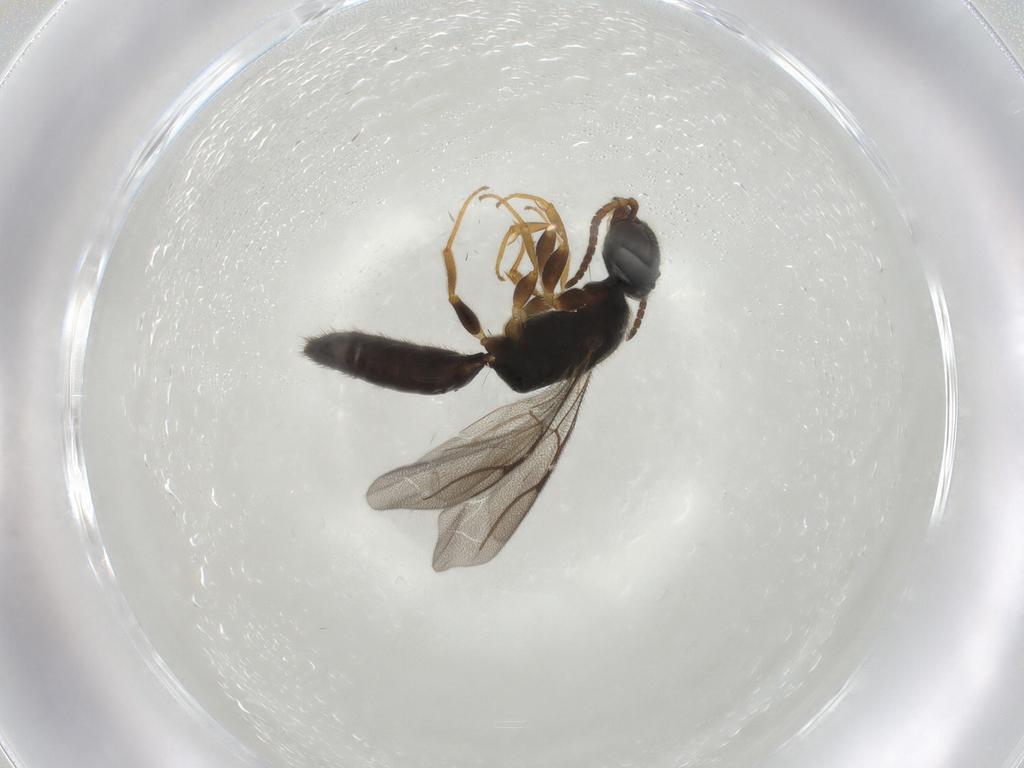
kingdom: Animalia
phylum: Arthropoda
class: Insecta
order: Hymenoptera
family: Bethylidae
